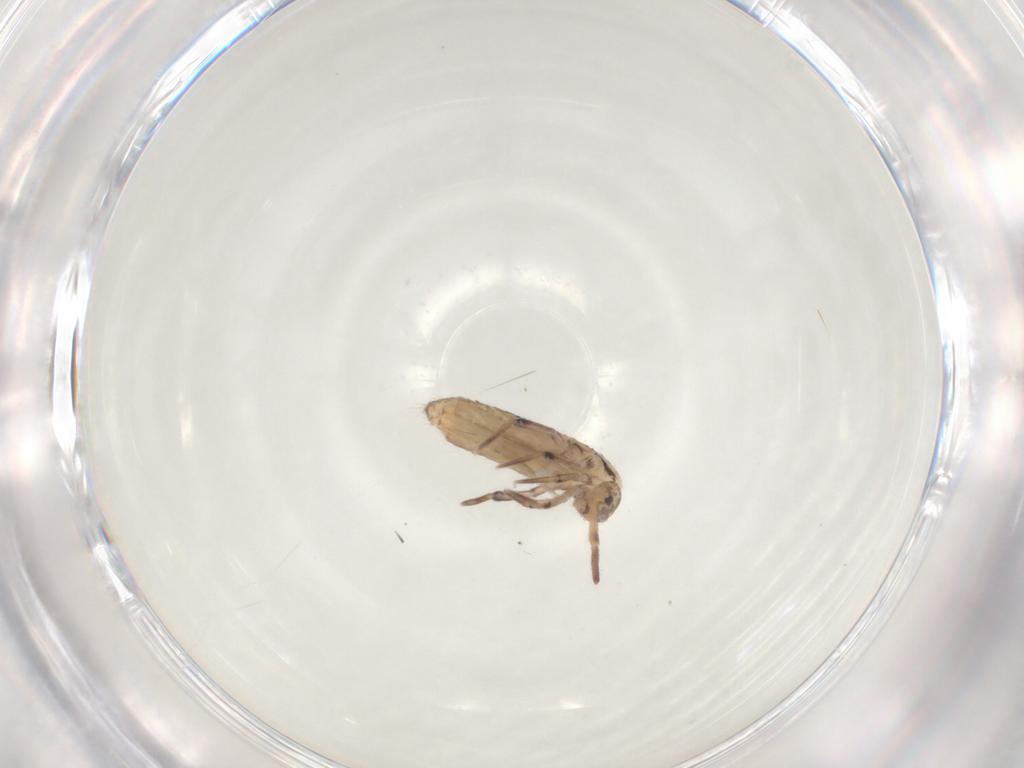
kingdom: Animalia
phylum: Arthropoda
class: Collembola
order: Entomobryomorpha
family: Entomobryidae
